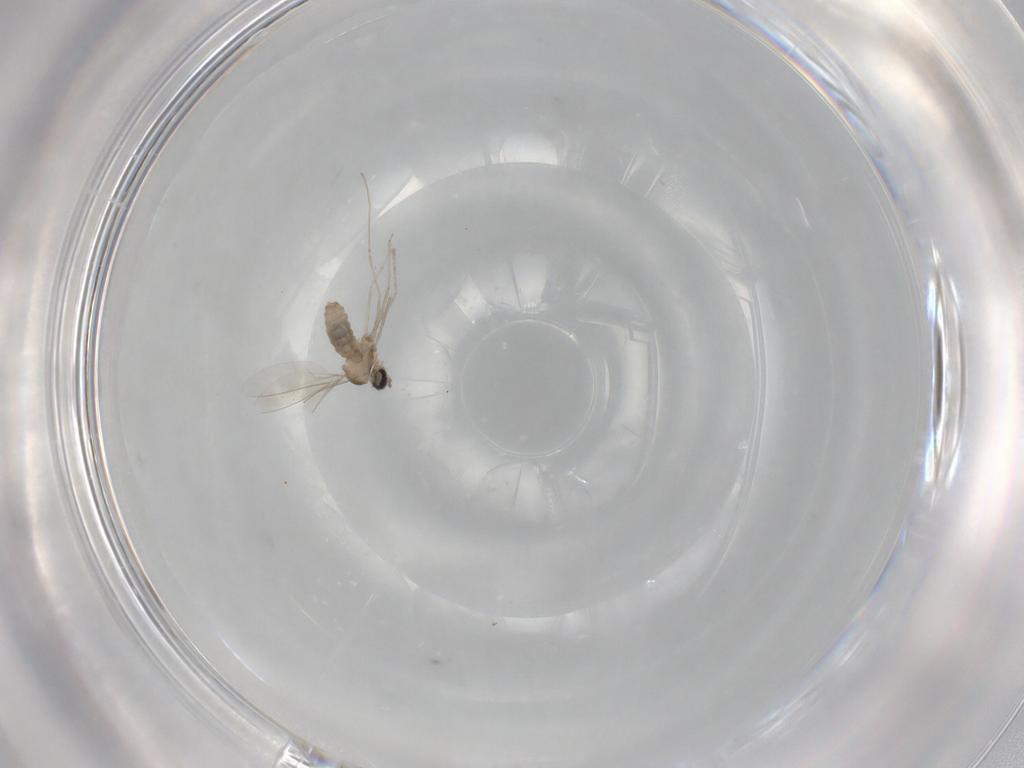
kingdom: Animalia
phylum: Arthropoda
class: Insecta
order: Diptera
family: Cecidomyiidae
